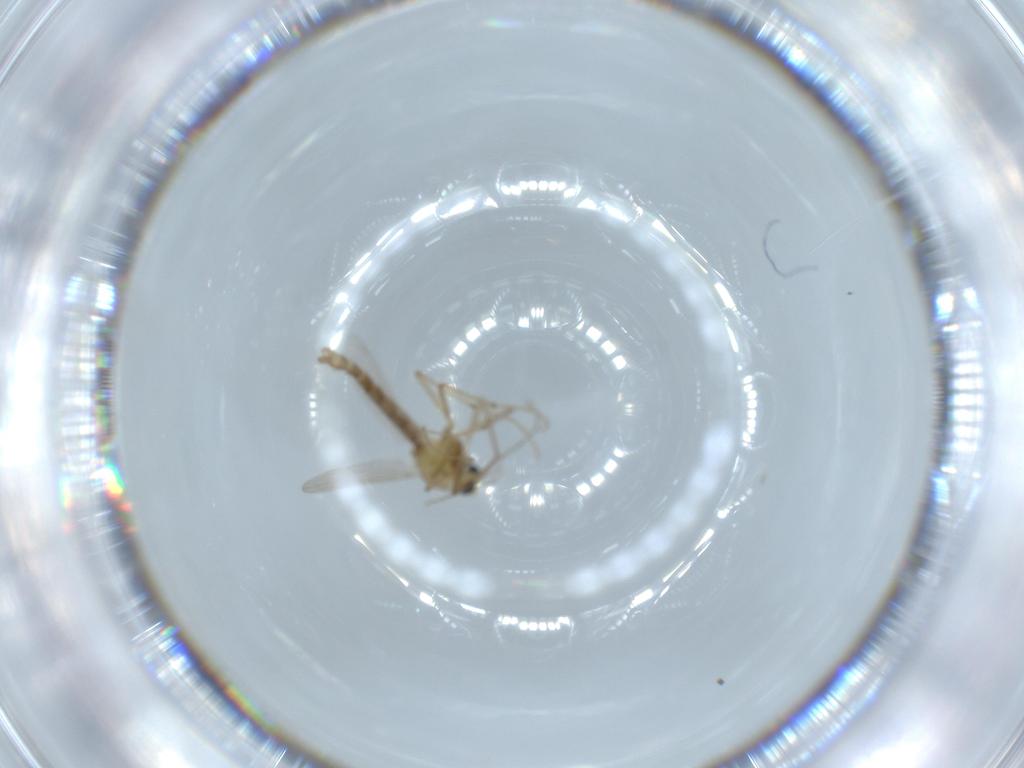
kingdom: Animalia
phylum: Arthropoda
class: Insecta
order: Diptera
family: Cecidomyiidae
